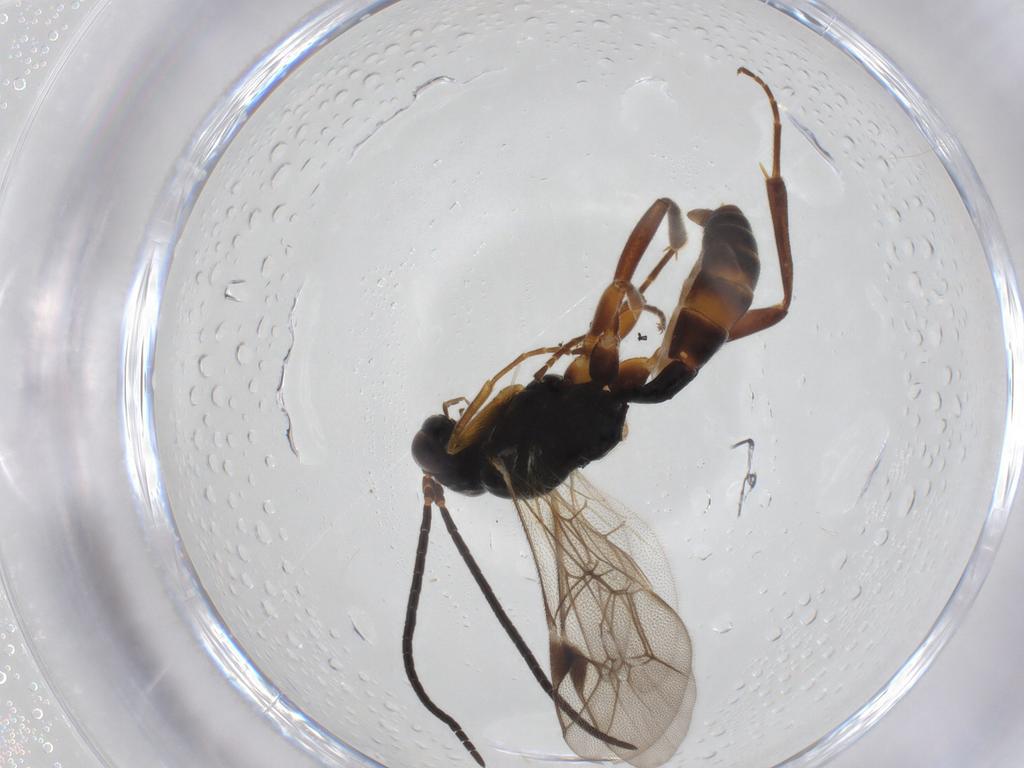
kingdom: Animalia
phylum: Arthropoda
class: Insecta
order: Hymenoptera
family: Ichneumonidae
